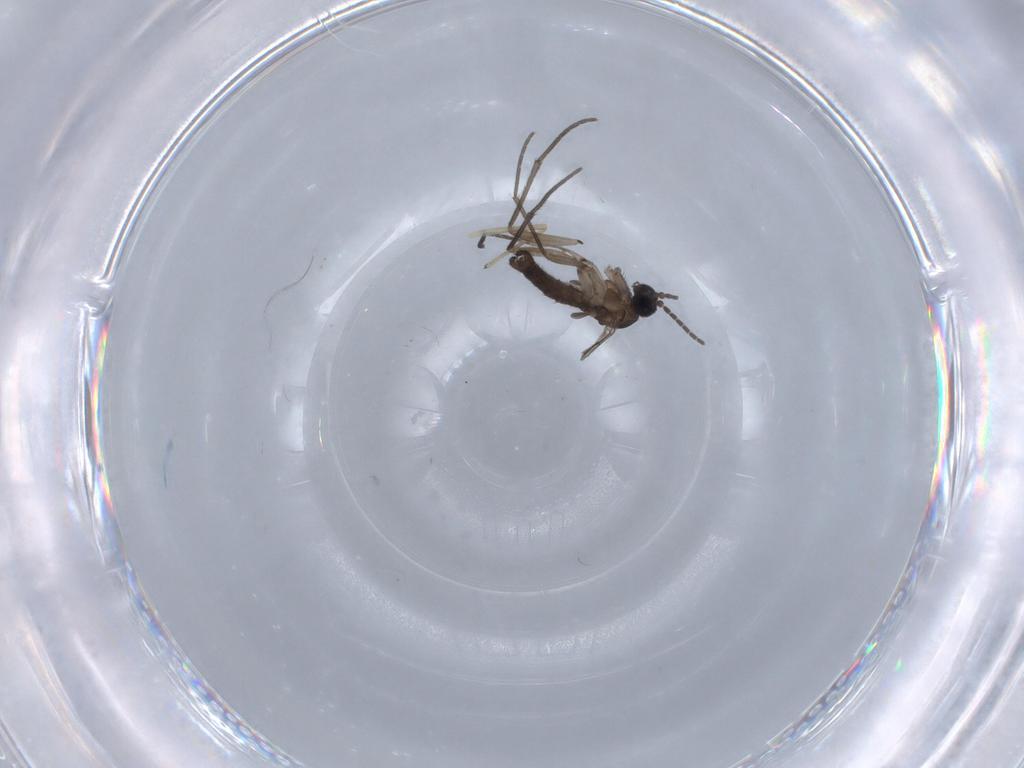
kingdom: Animalia
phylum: Arthropoda
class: Insecta
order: Diptera
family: Sciaridae
